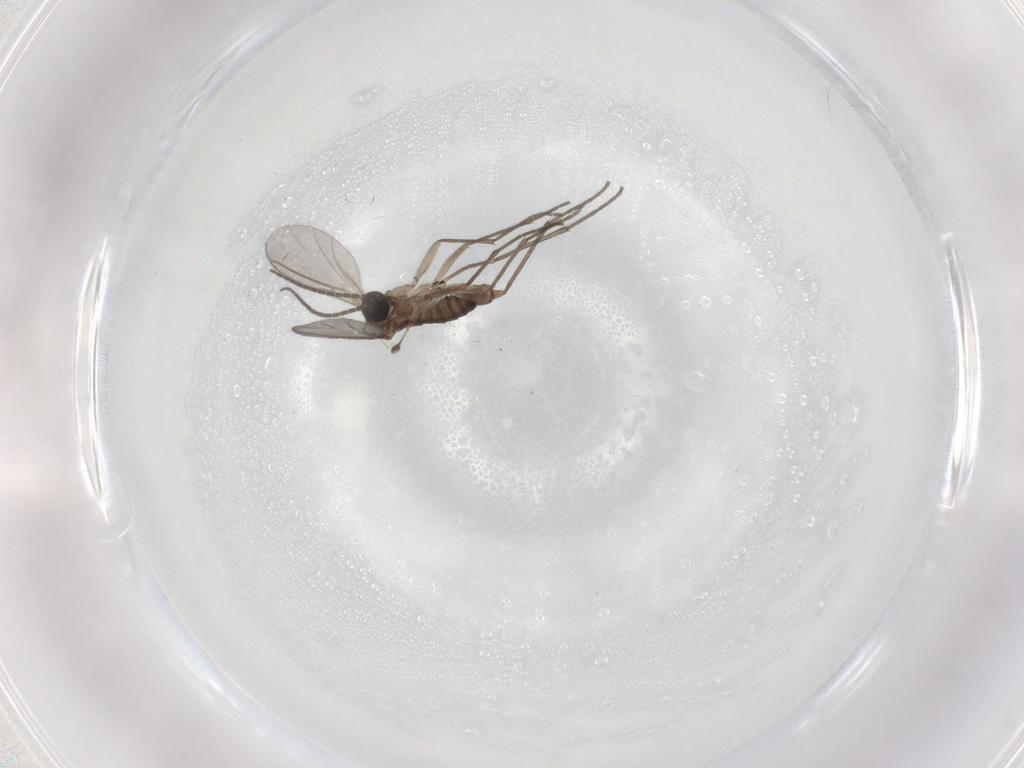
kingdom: Animalia
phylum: Arthropoda
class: Insecta
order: Diptera
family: Sciaridae
